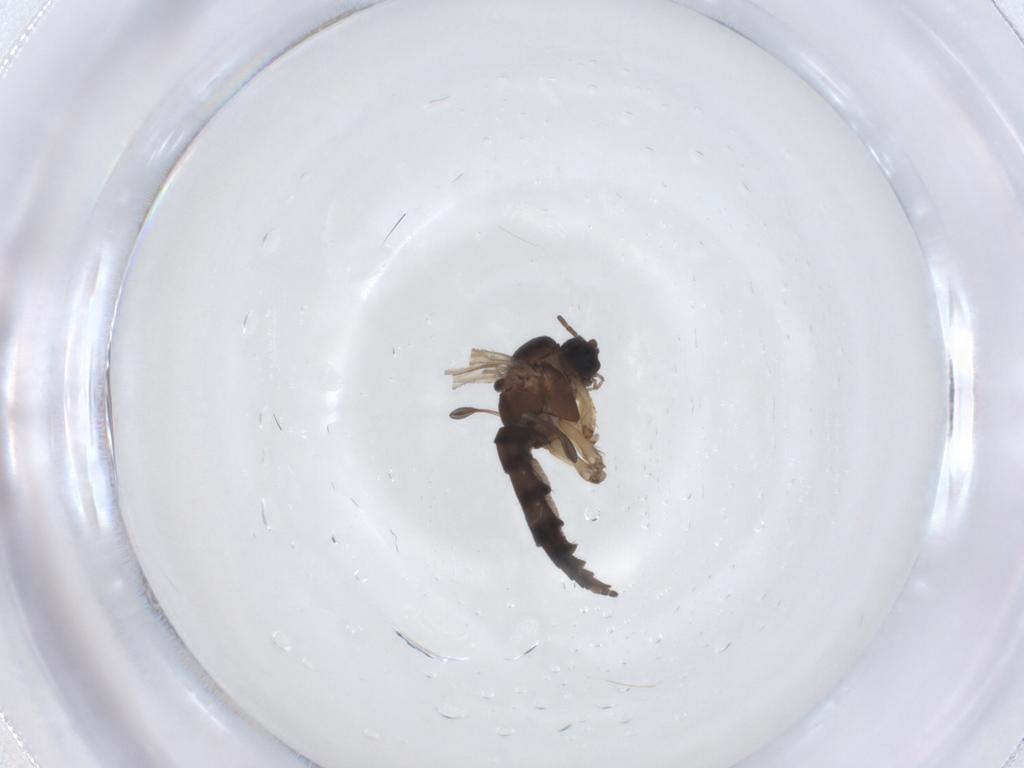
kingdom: Animalia
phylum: Arthropoda
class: Insecta
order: Diptera
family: Sciaridae
